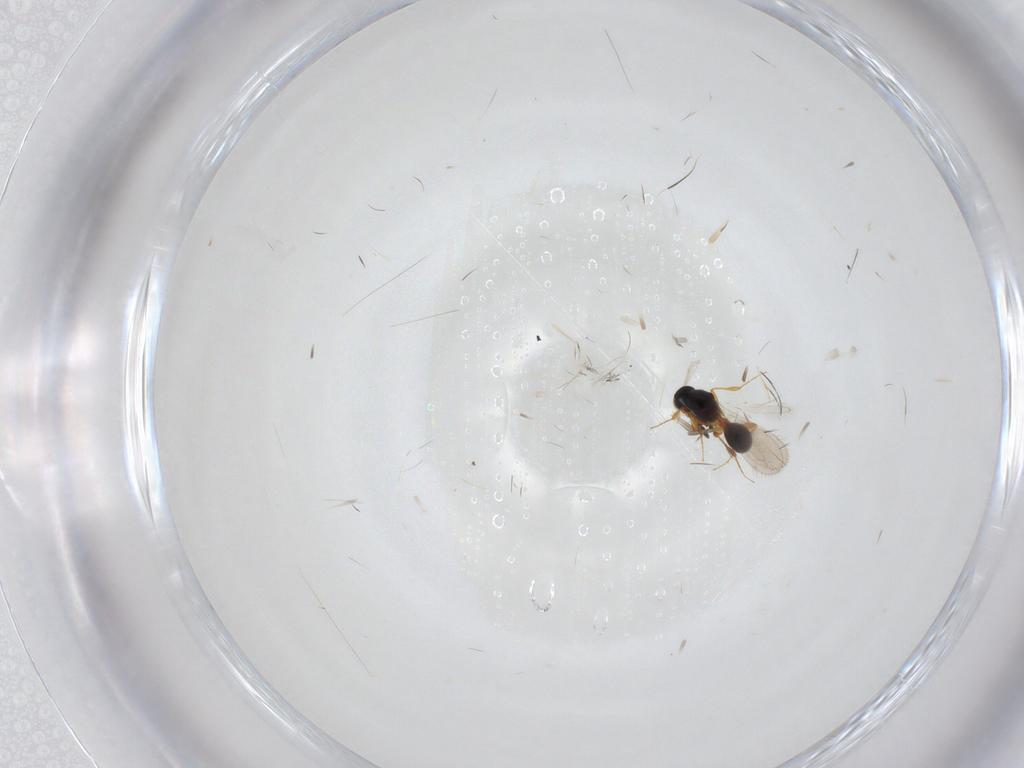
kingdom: Animalia
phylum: Arthropoda
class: Insecta
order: Hymenoptera
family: Platygastridae
